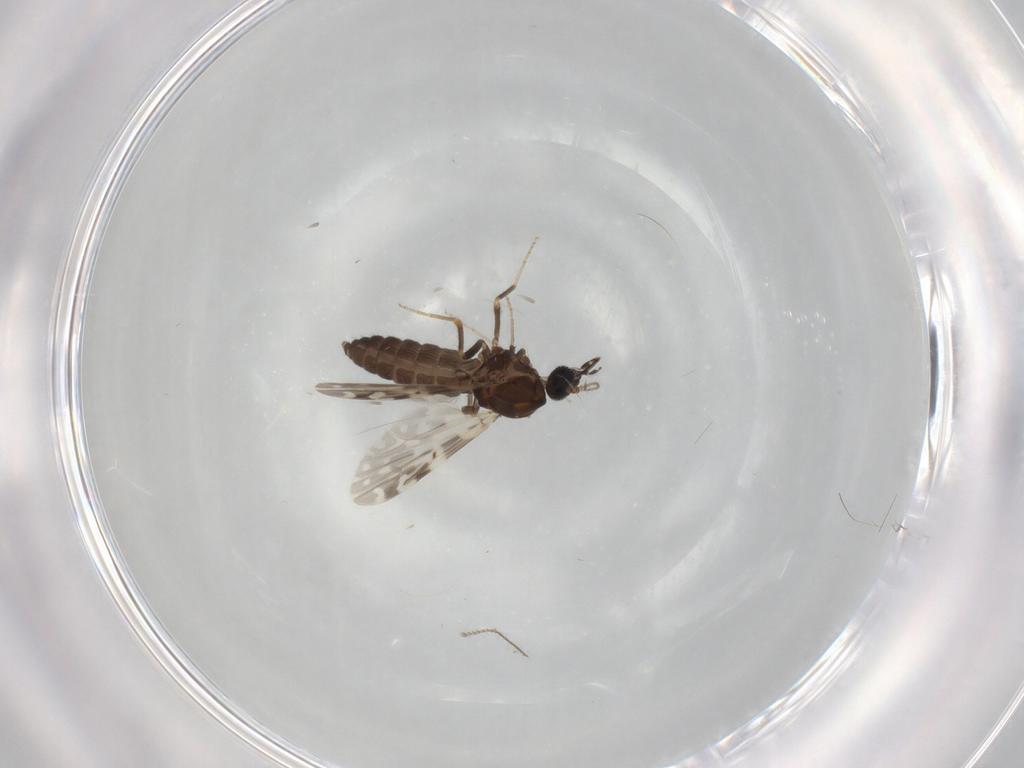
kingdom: Animalia
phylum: Arthropoda
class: Insecta
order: Diptera
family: Ceratopogonidae
